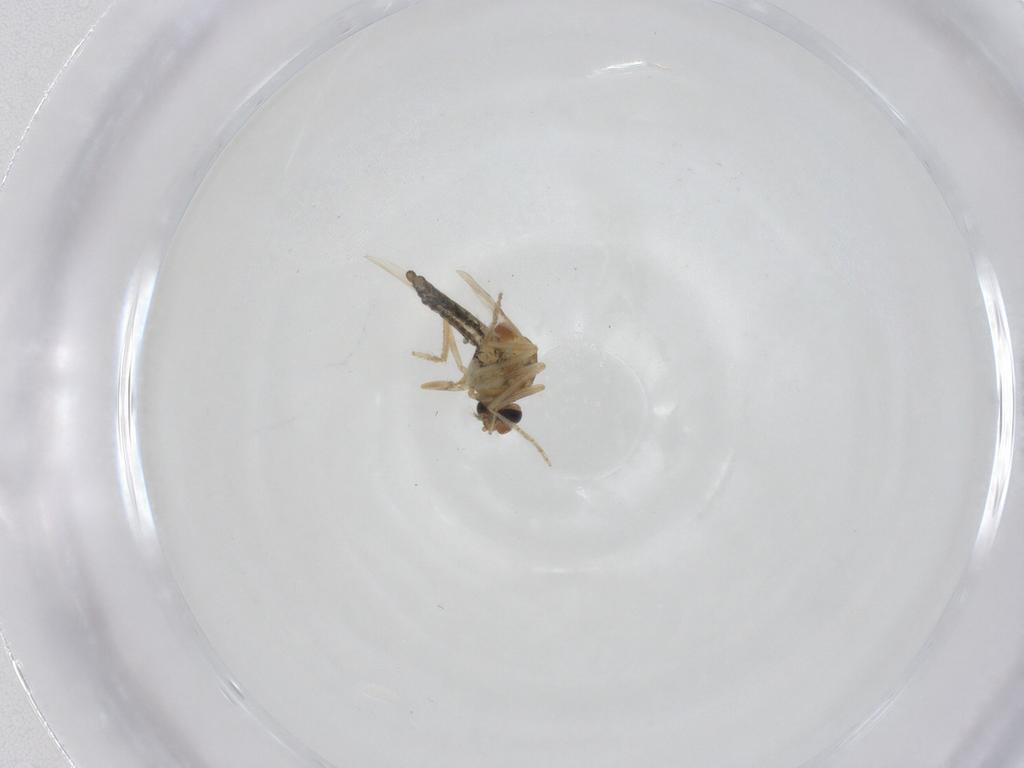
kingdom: Animalia
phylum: Arthropoda
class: Insecta
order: Diptera
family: Ceratopogonidae
